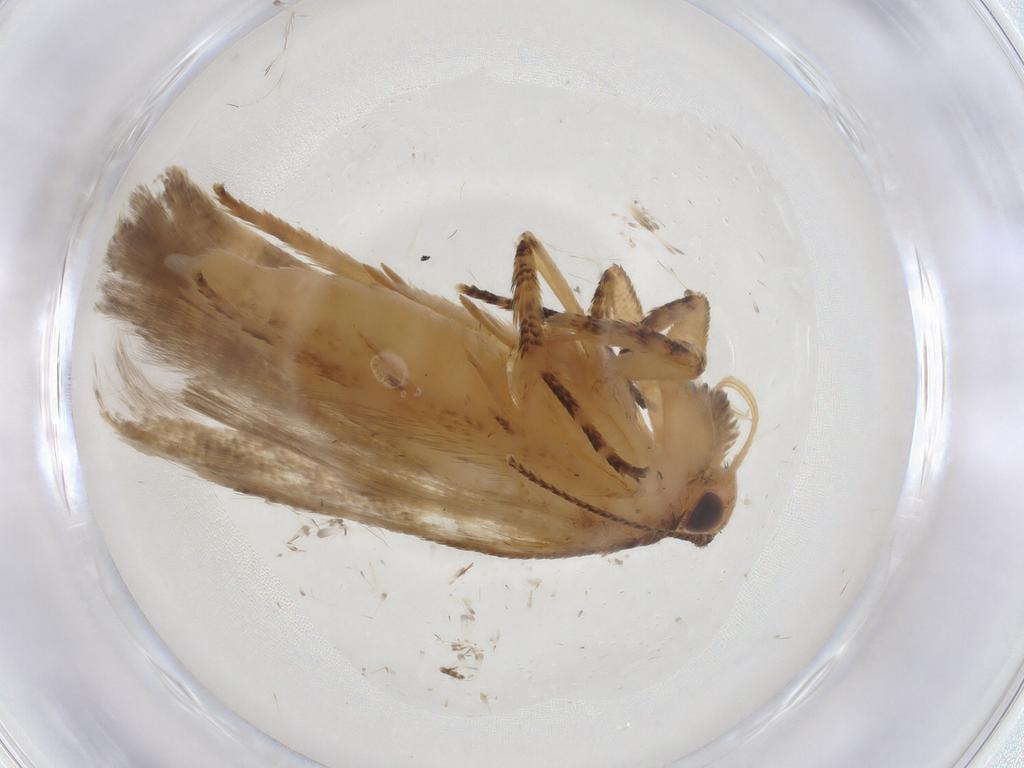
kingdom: Animalia
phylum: Arthropoda
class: Insecta
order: Lepidoptera
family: Gelechiidae
